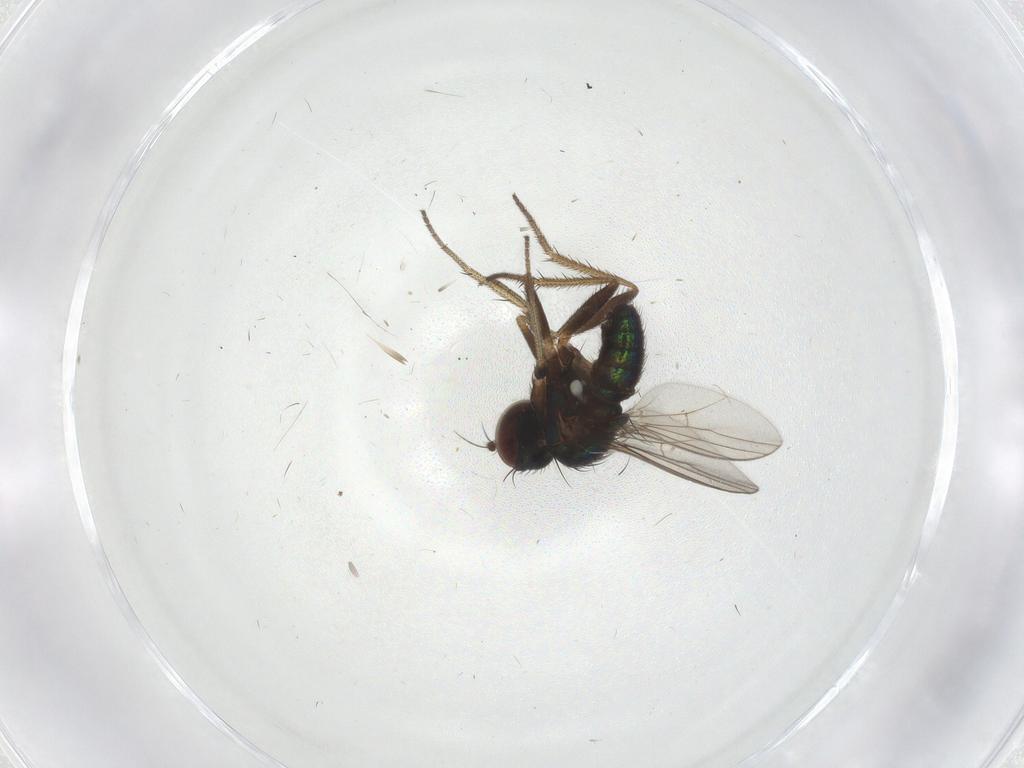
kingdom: Animalia
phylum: Arthropoda
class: Insecta
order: Diptera
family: Dolichopodidae
